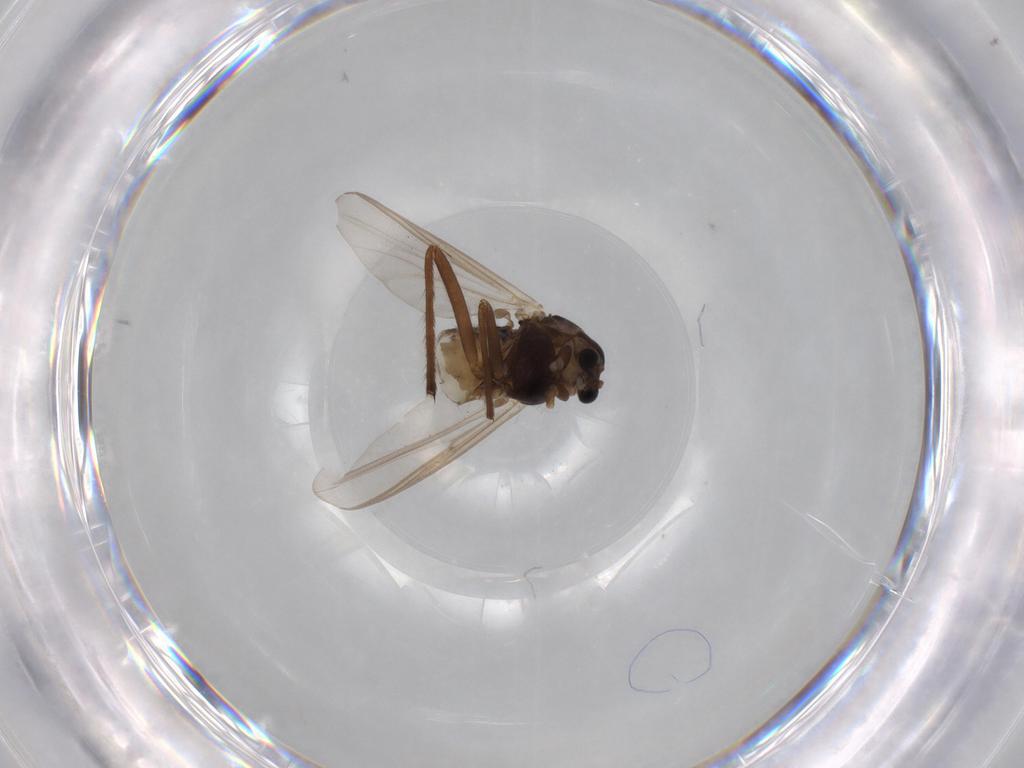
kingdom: Animalia
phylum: Arthropoda
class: Insecta
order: Diptera
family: Chironomidae
